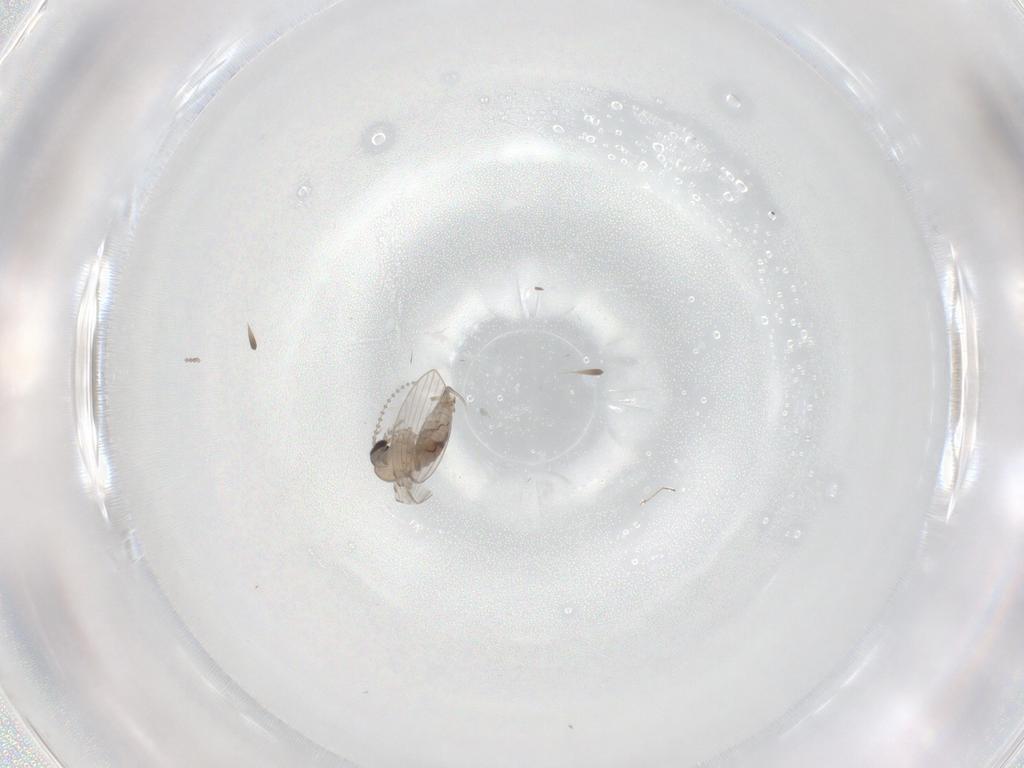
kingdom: Animalia
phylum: Arthropoda
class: Insecta
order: Diptera
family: Psychodidae
